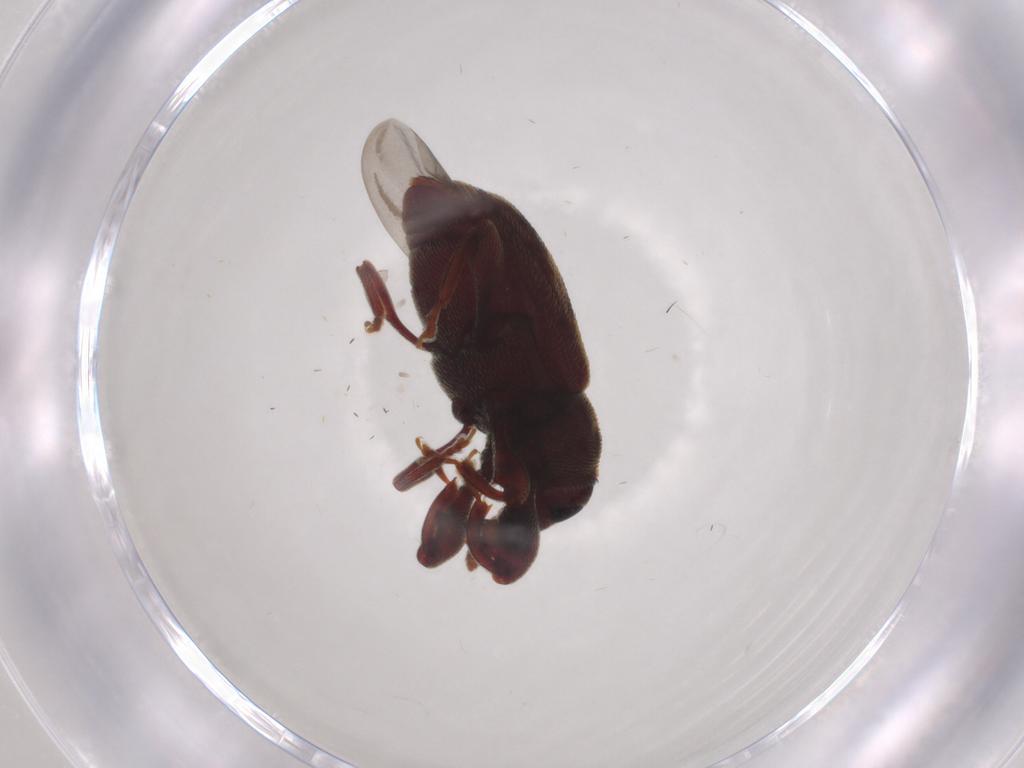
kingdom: Animalia
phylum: Arthropoda
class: Insecta
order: Coleoptera
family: Curculionidae
